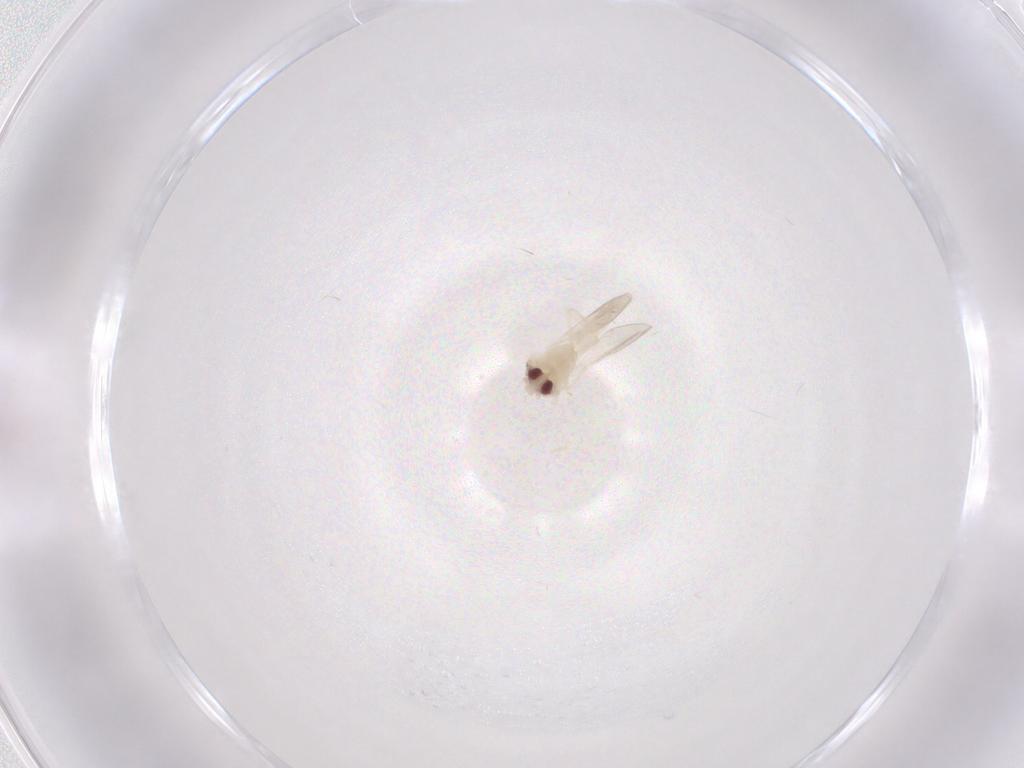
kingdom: Animalia
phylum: Arthropoda
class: Insecta
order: Hemiptera
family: Aleyrodidae
